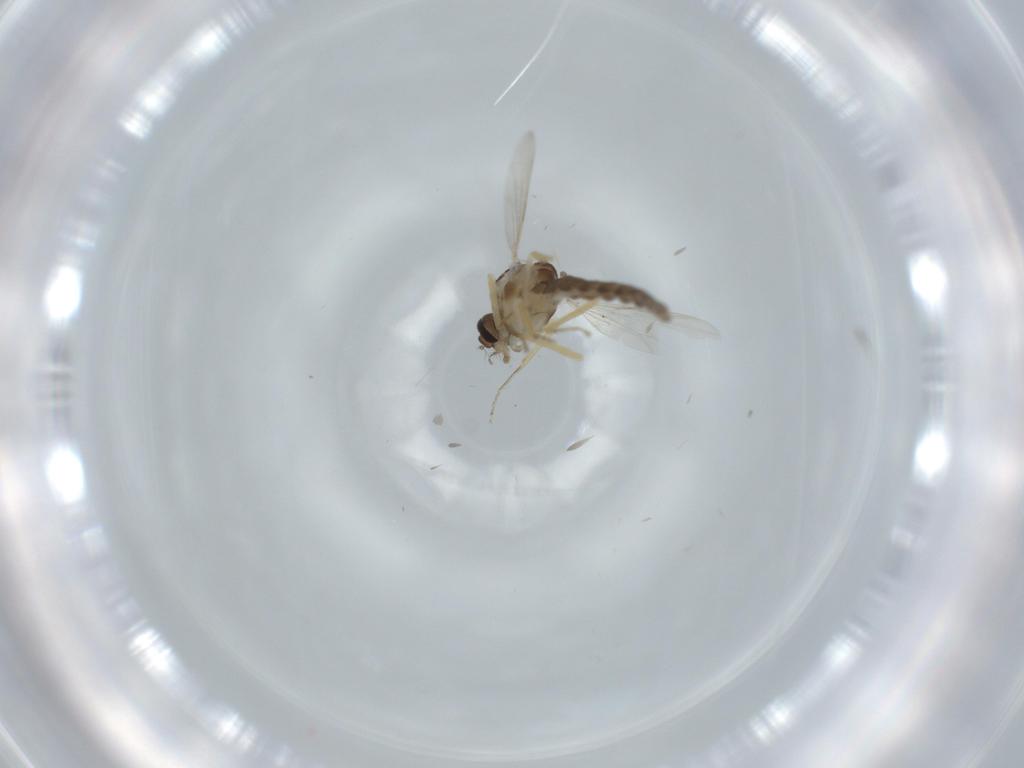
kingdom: Animalia
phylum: Arthropoda
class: Insecta
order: Diptera
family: Ceratopogonidae
